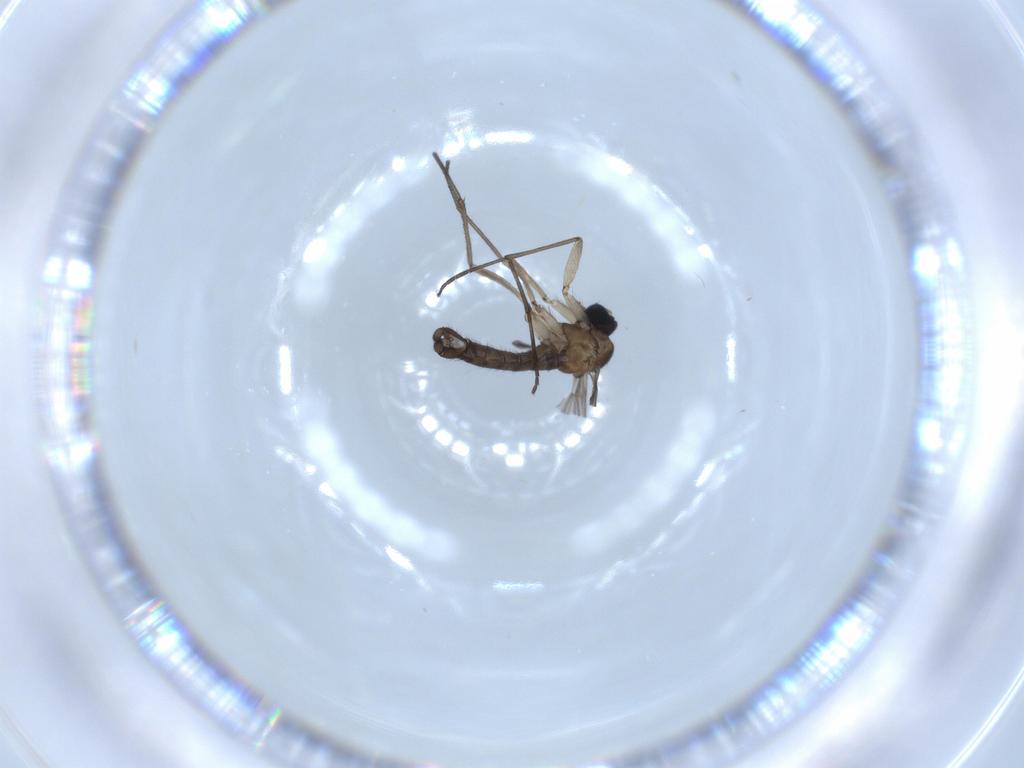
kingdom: Animalia
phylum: Arthropoda
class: Insecta
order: Diptera
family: Sciaridae
